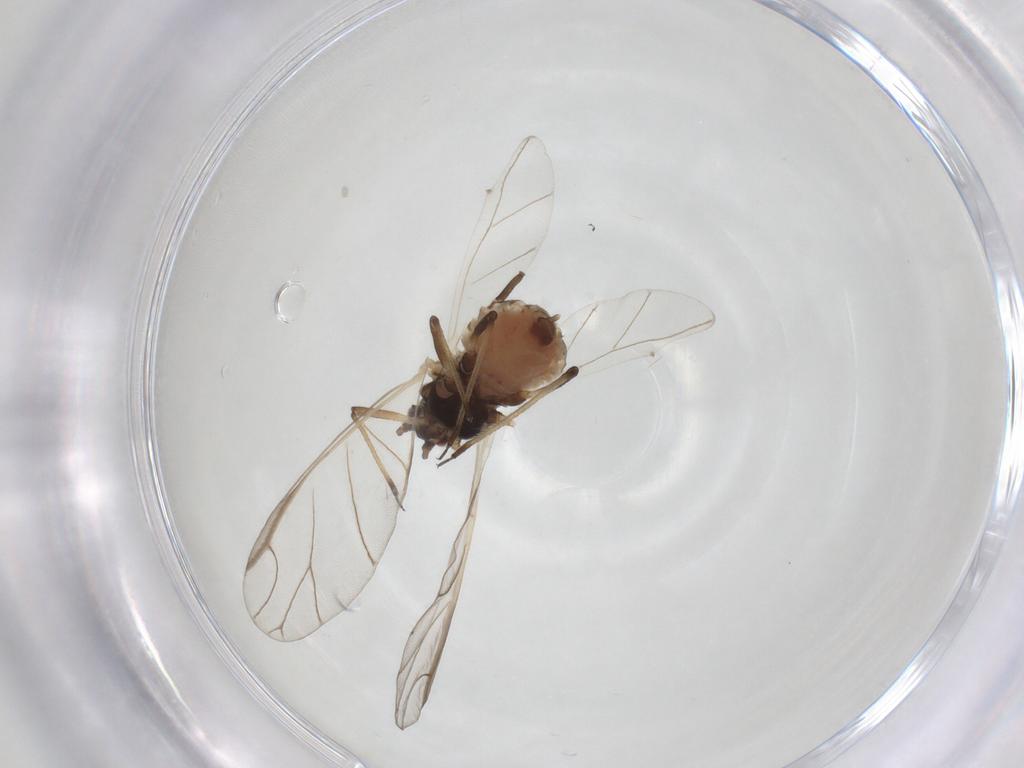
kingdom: Animalia
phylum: Arthropoda
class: Insecta
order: Hemiptera
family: Aphididae
